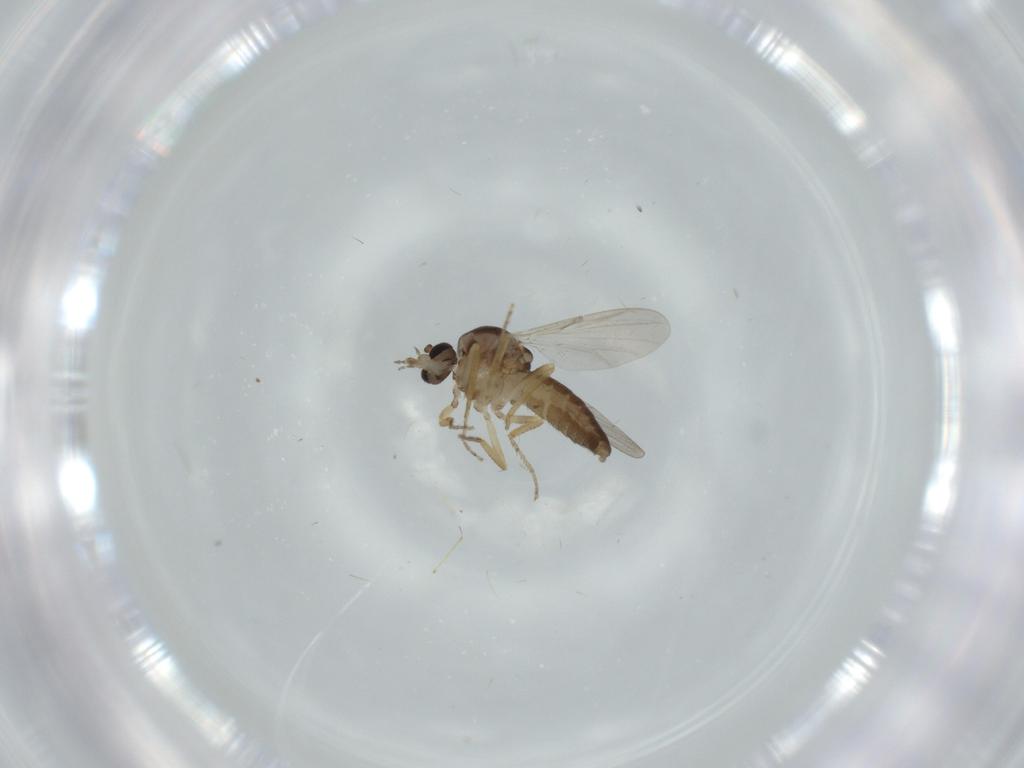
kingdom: Animalia
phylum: Arthropoda
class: Insecta
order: Diptera
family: Ceratopogonidae
